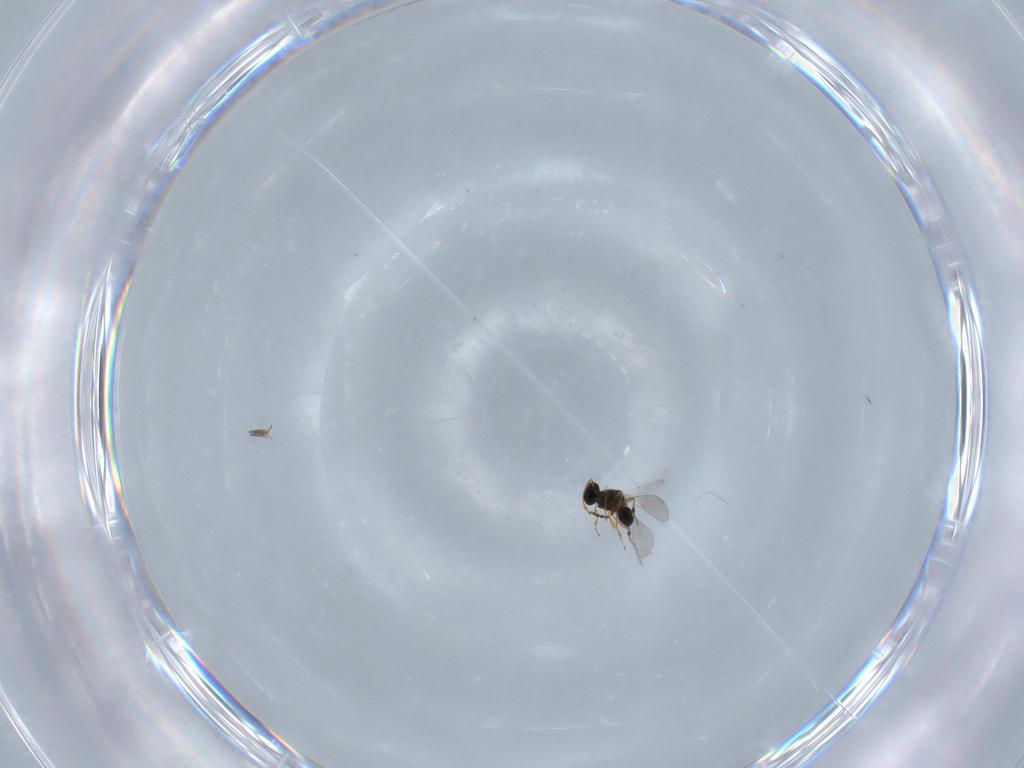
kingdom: Animalia
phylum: Arthropoda
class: Insecta
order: Hymenoptera
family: Platygastridae
